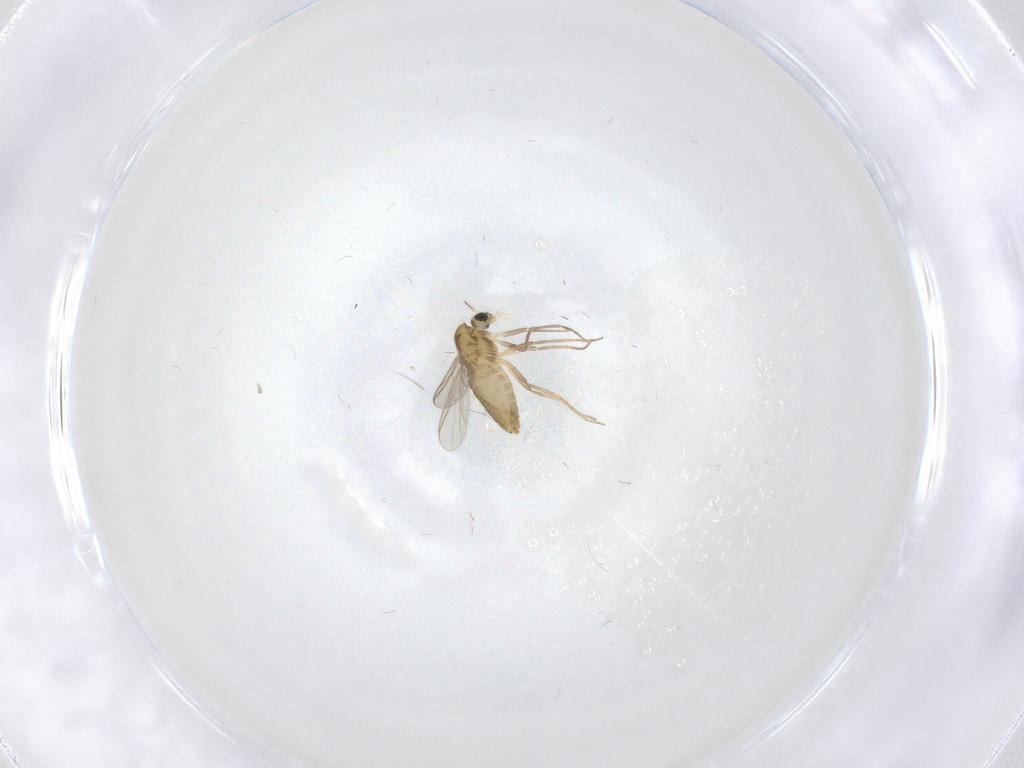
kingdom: Animalia
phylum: Arthropoda
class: Insecta
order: Diptera
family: Chironomidae
